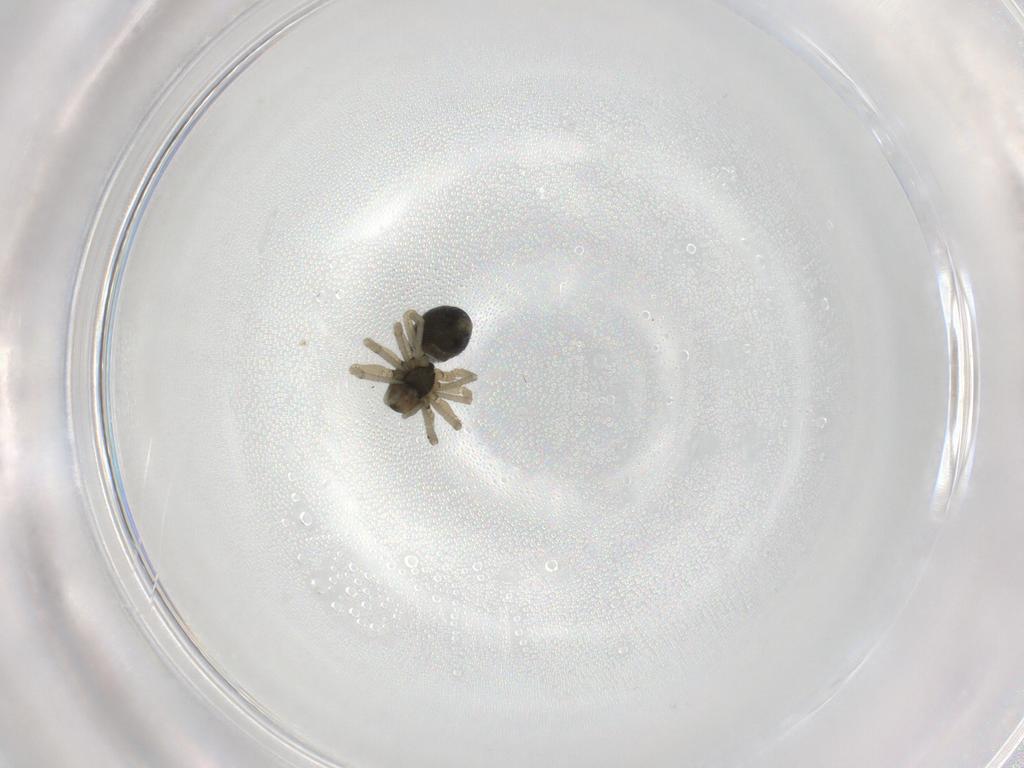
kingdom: Animalia
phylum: Arthropoda
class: Arachnida
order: Araneae
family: Linyphiidae
